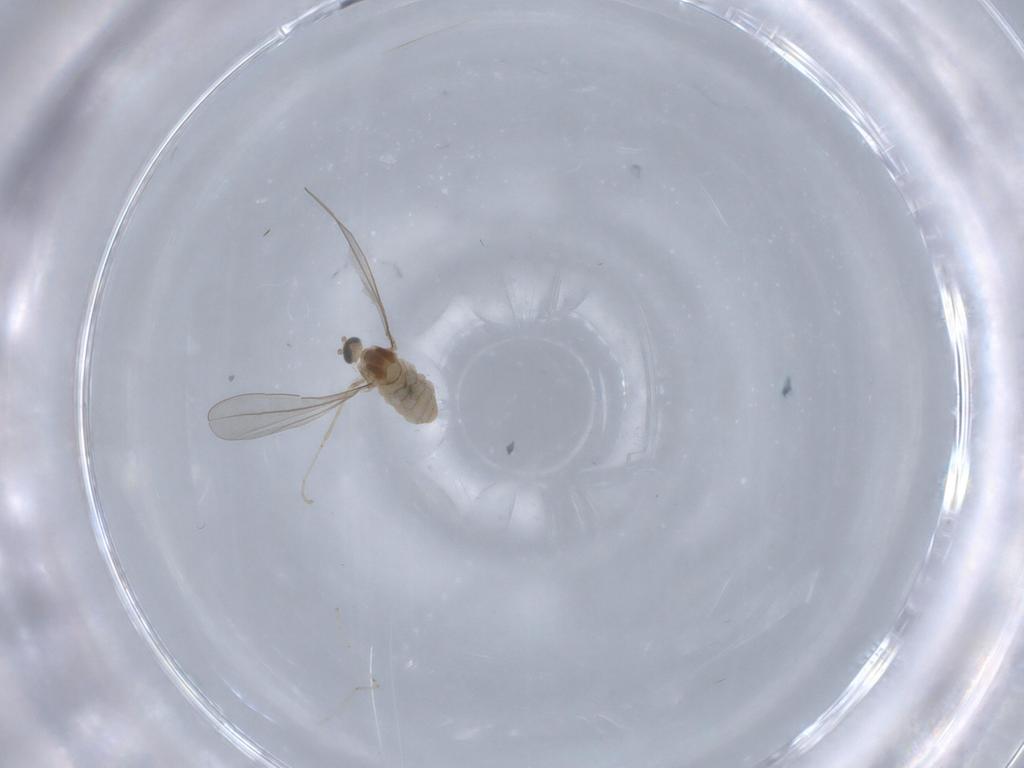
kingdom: Animalia
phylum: Arthropoda
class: Insecta
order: Diptera
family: Cecidomyiidae
